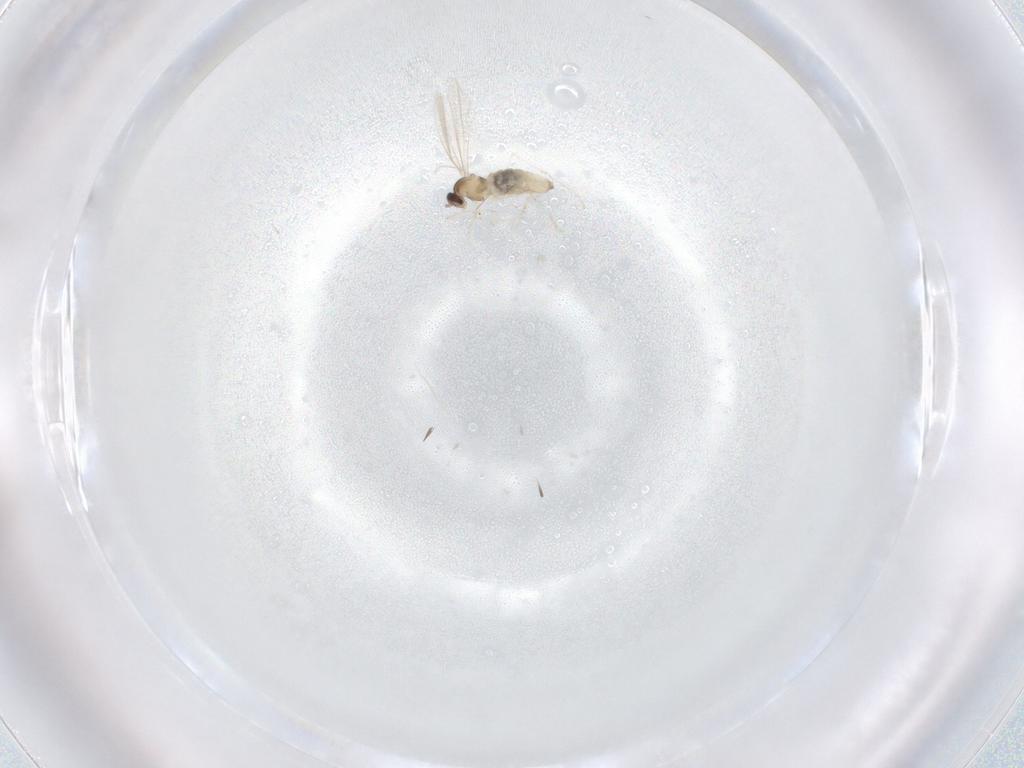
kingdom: Animalia
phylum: Arthropoda
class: Insecta
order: Diptera
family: Cecidomyiidae
